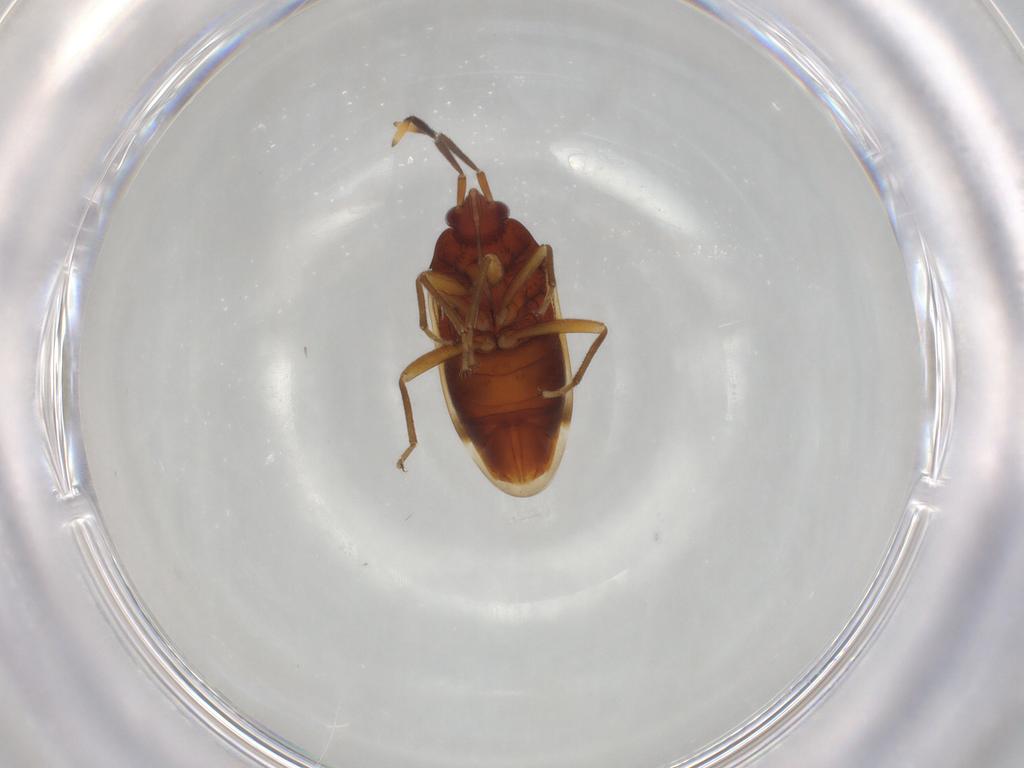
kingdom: Animalia
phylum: Arthropoda
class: Insecta
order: Hemiptera
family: Rhyparochromidae
